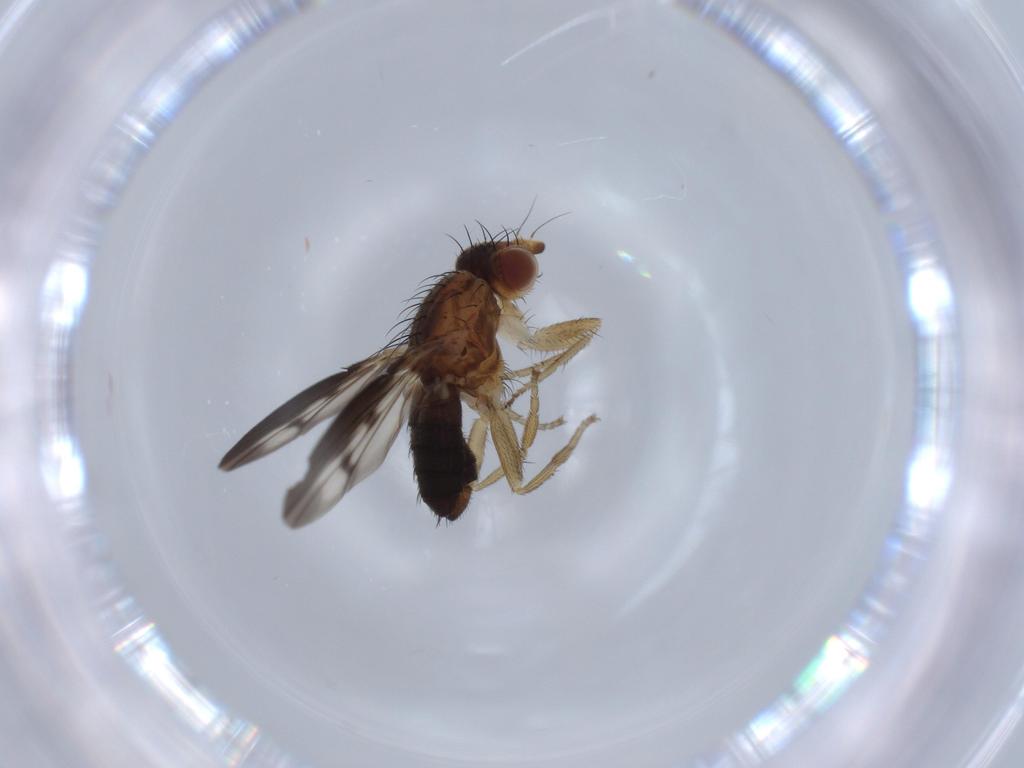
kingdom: Animalia
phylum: Arthropoda
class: Insecta
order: Diptera
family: Heleomyzidae
